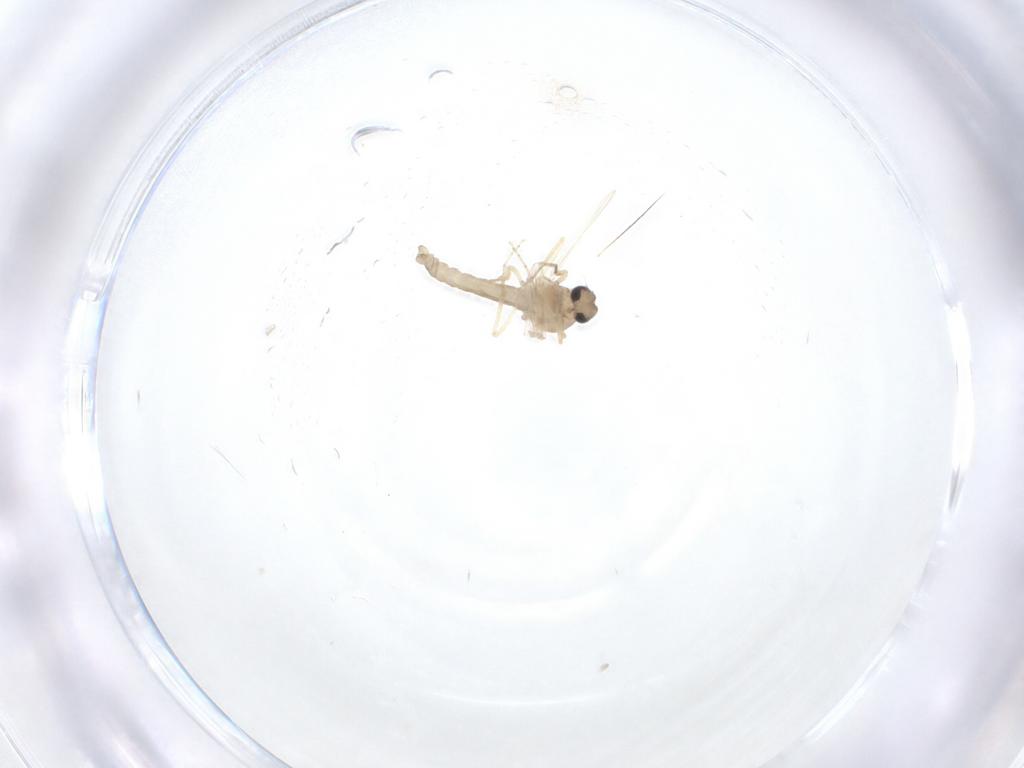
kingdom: Animalia
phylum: Arthropoda
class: Insecta
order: Diptera
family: Ceratopogonidae
